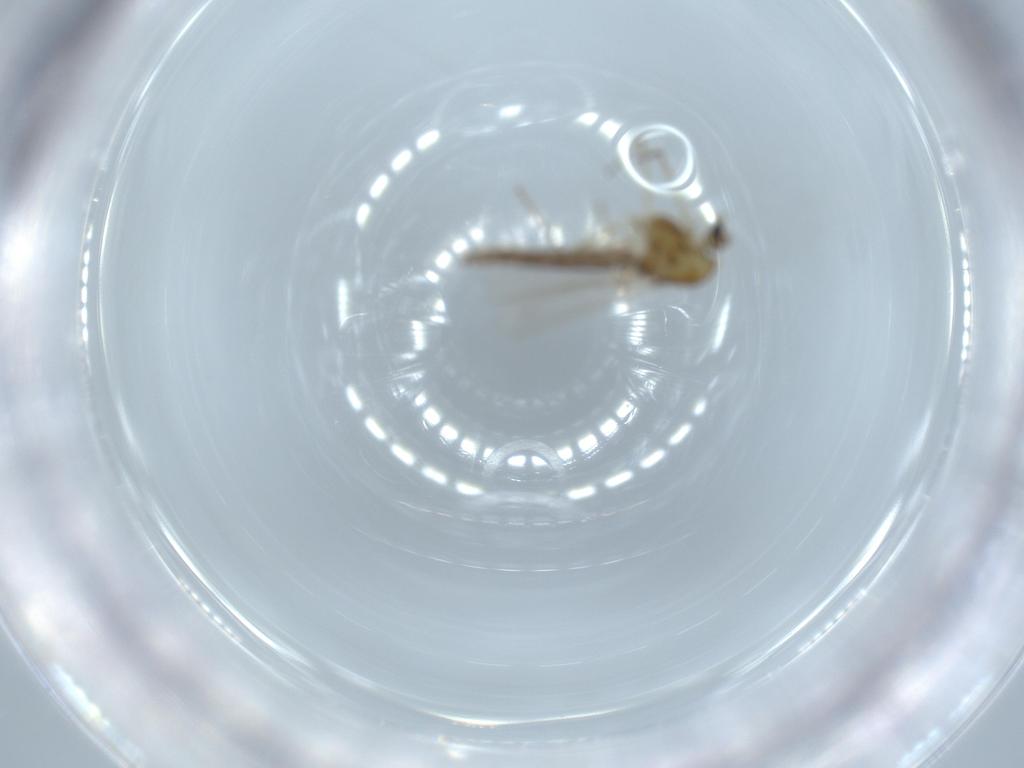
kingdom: Animalia
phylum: Arthropoda
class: Insecta
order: Diptera
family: Chironomidae
